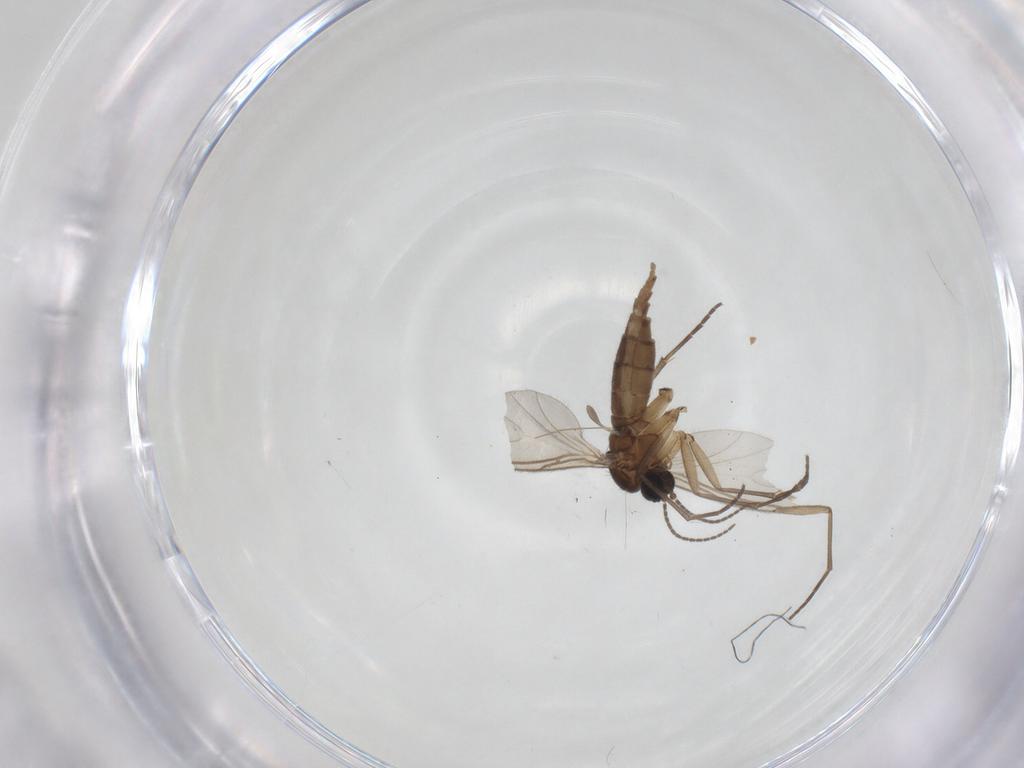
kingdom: Animalia
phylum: Arthropoda
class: Insecta
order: Diptera
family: Sciaridae
